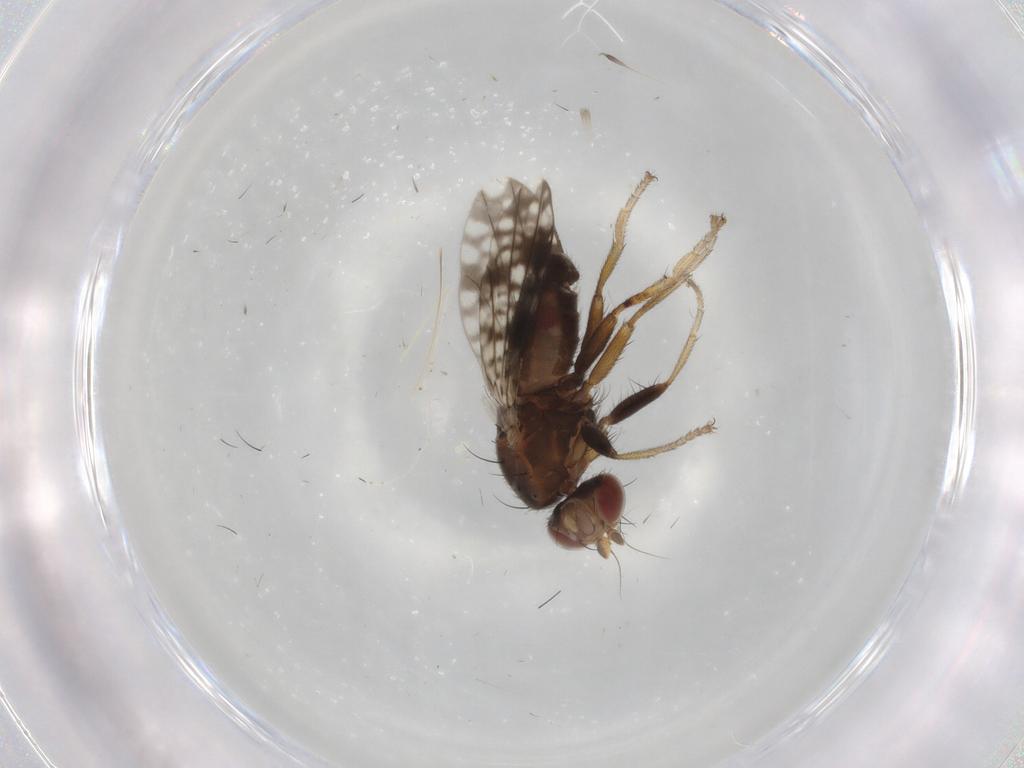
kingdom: Animalia
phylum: Arthropoda
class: Insecta
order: Diptera
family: Tephritidae
